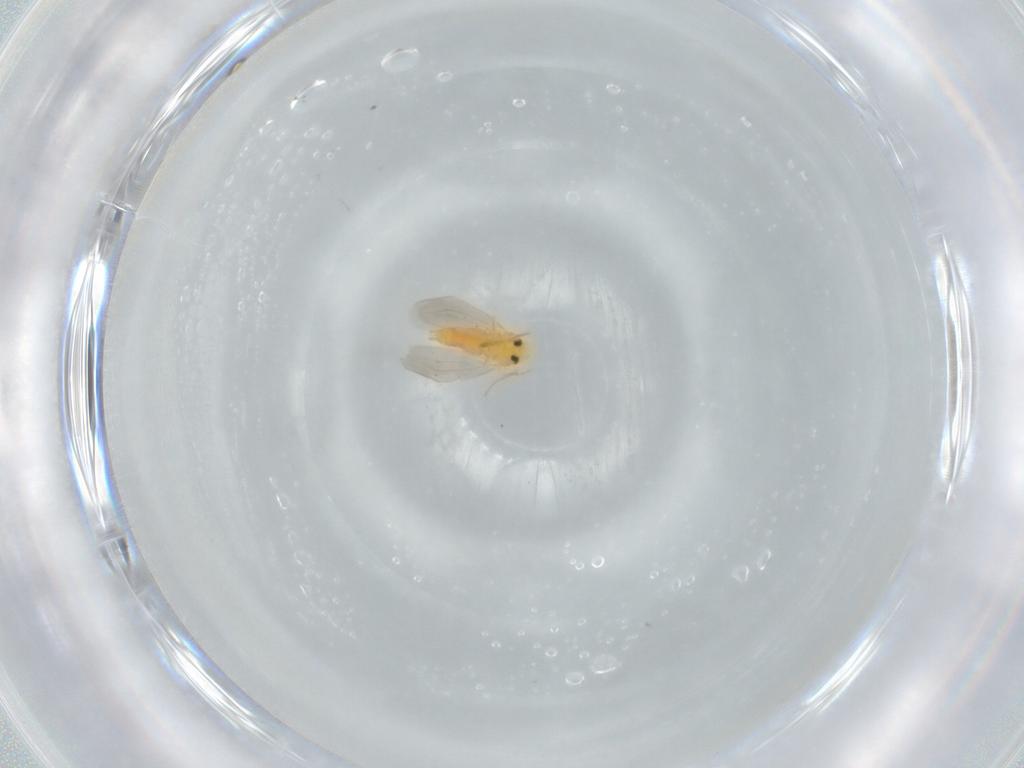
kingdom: Animalia
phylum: Arthropoda
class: Insecta
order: Hemiptera
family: Aleyrodidae
